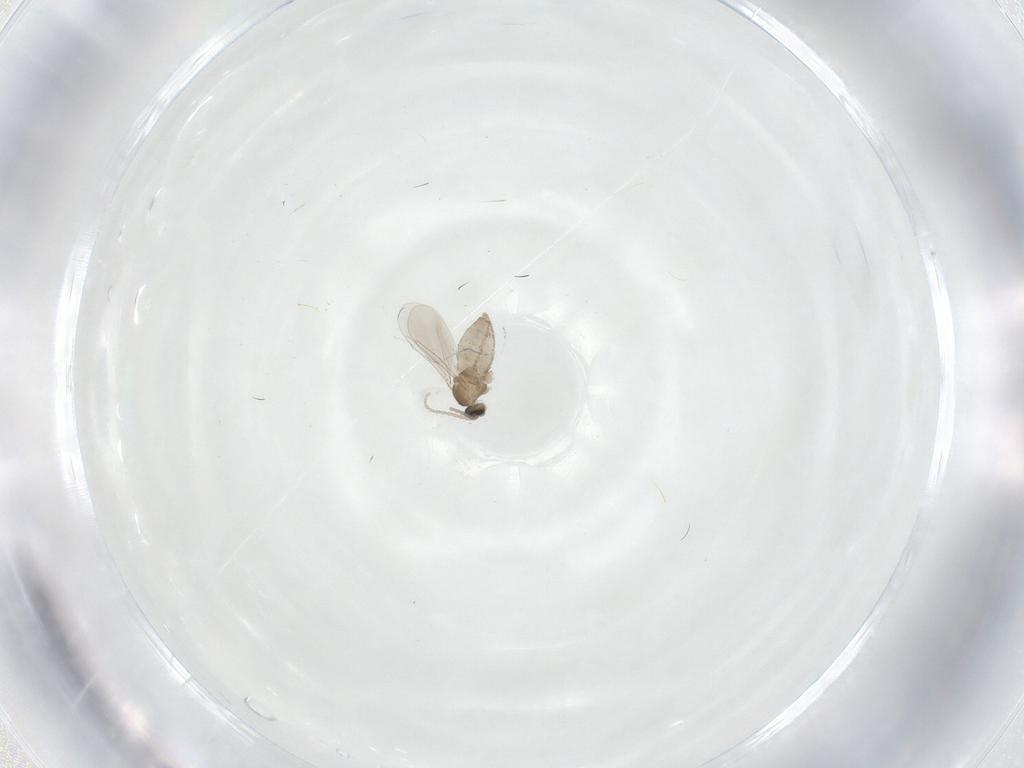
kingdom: Animalia
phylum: Arthropoda
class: Insecta
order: Diptera
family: Cecidomyiidae
